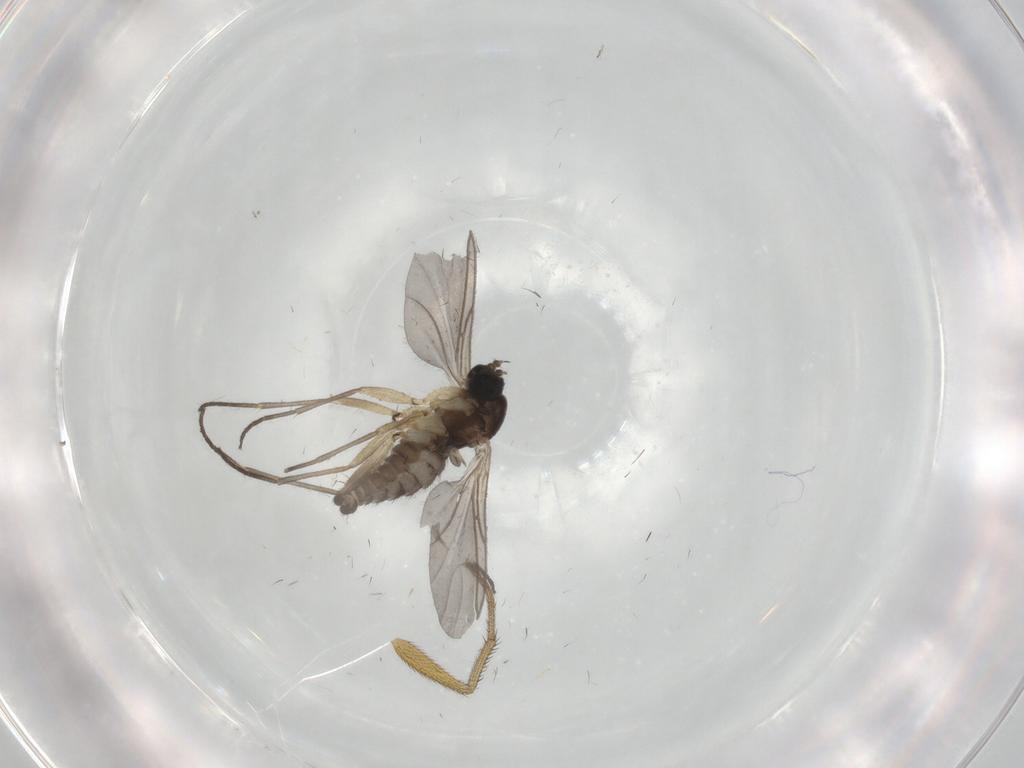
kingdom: Animalia
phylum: Arthropoda
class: Insecta
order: Diptera
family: Sciaridae
